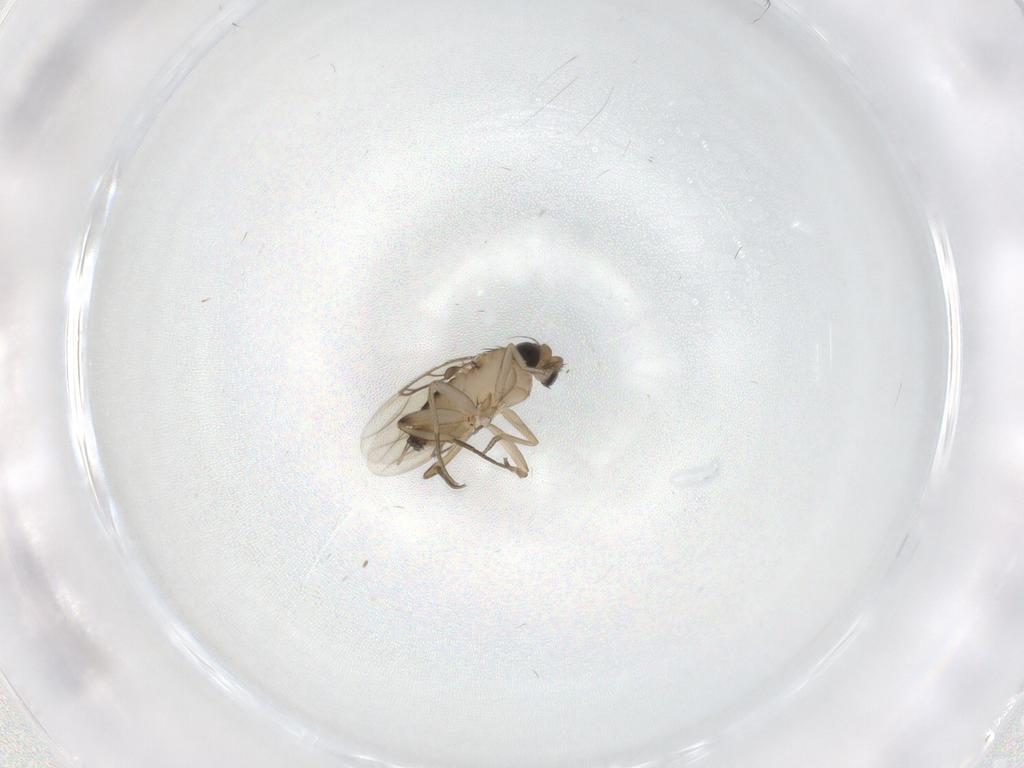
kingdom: Animalia
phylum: Arthropoda
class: Insecta
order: Diptera
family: Phoridae
